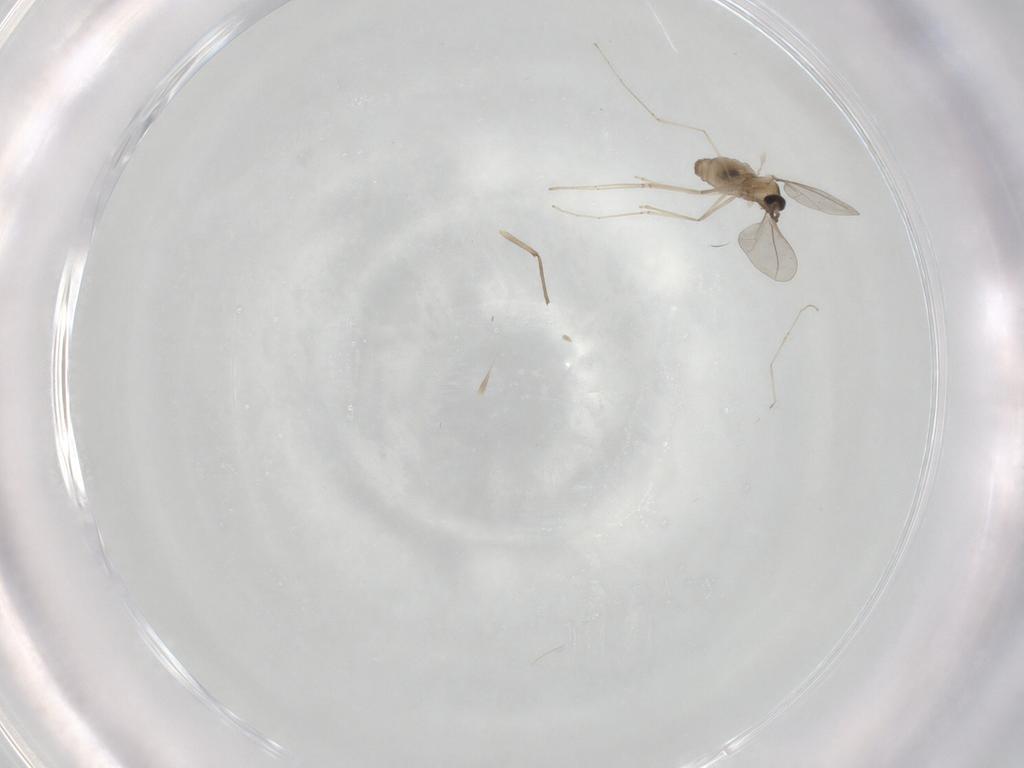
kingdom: Animalia
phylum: Arthropoda
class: Insecta
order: Diptera
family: Chironomidae
